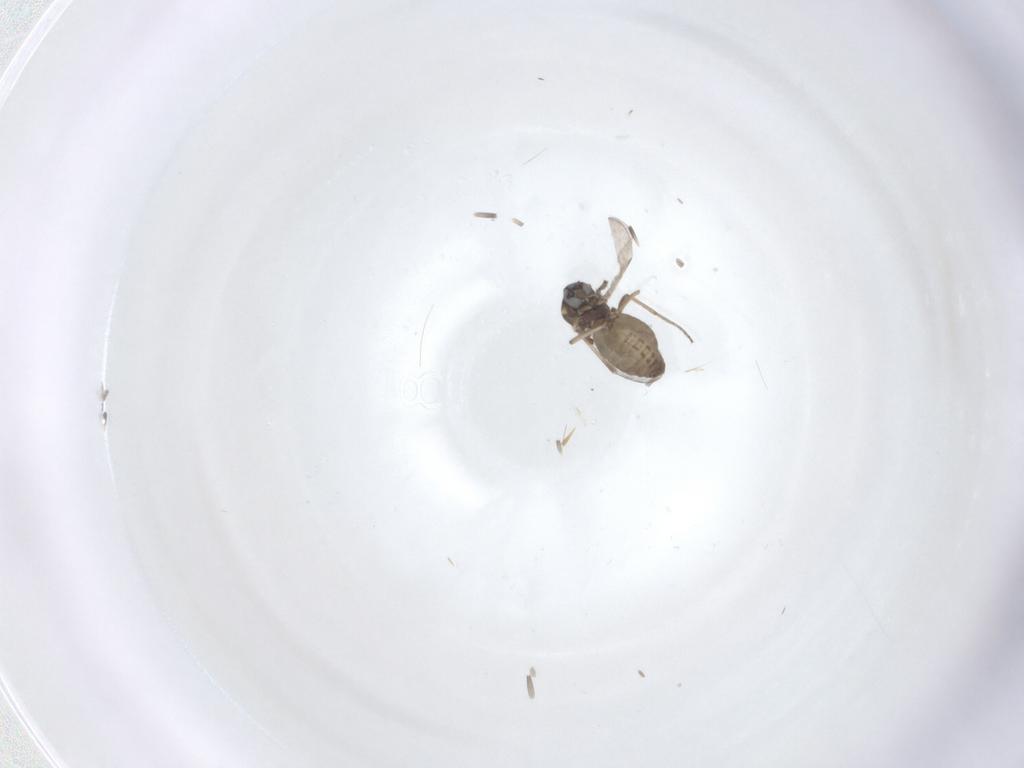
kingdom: Animalia
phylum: Arthropoda
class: Insecta
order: Diptera
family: Ceratopogonidae
